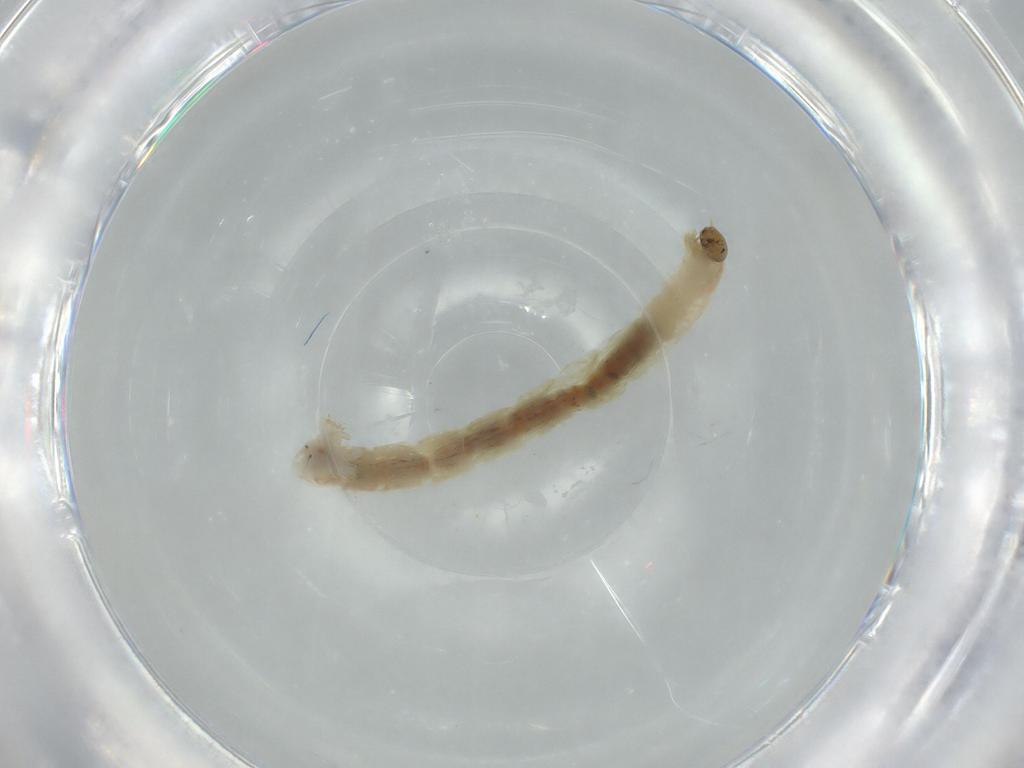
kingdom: Animalia
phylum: Arthropoda
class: Insecta
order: Diptera
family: Chironomidae
